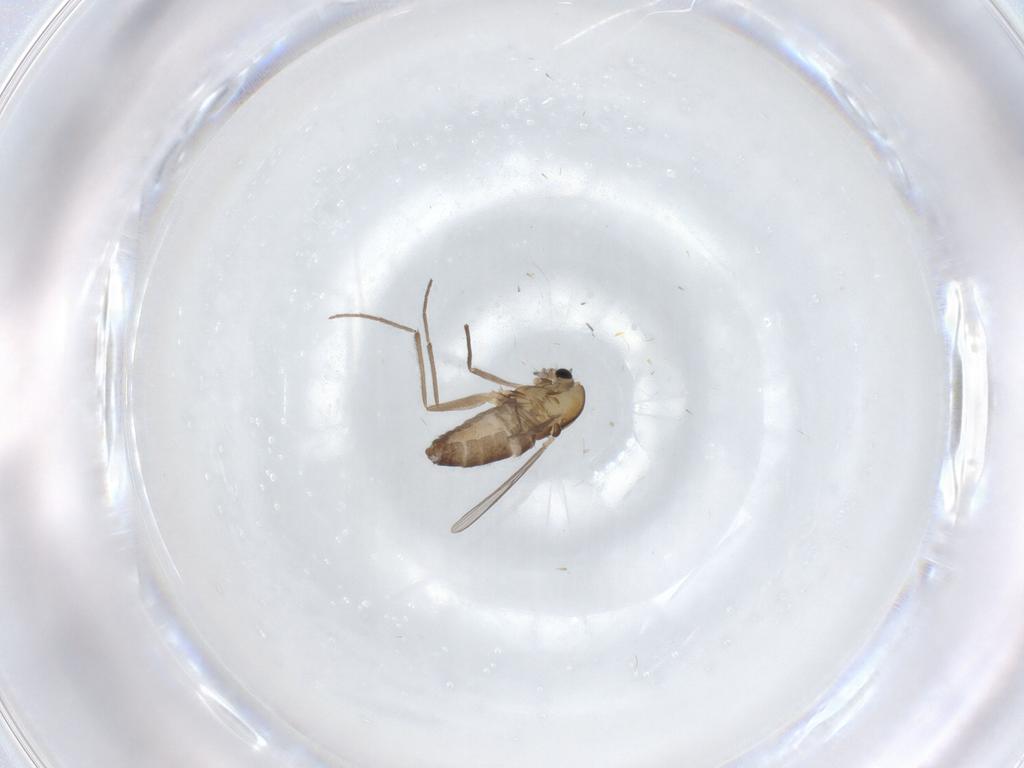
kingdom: Animalia
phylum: Arthropoda
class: Insecta
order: Diptera
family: Chironomidae
